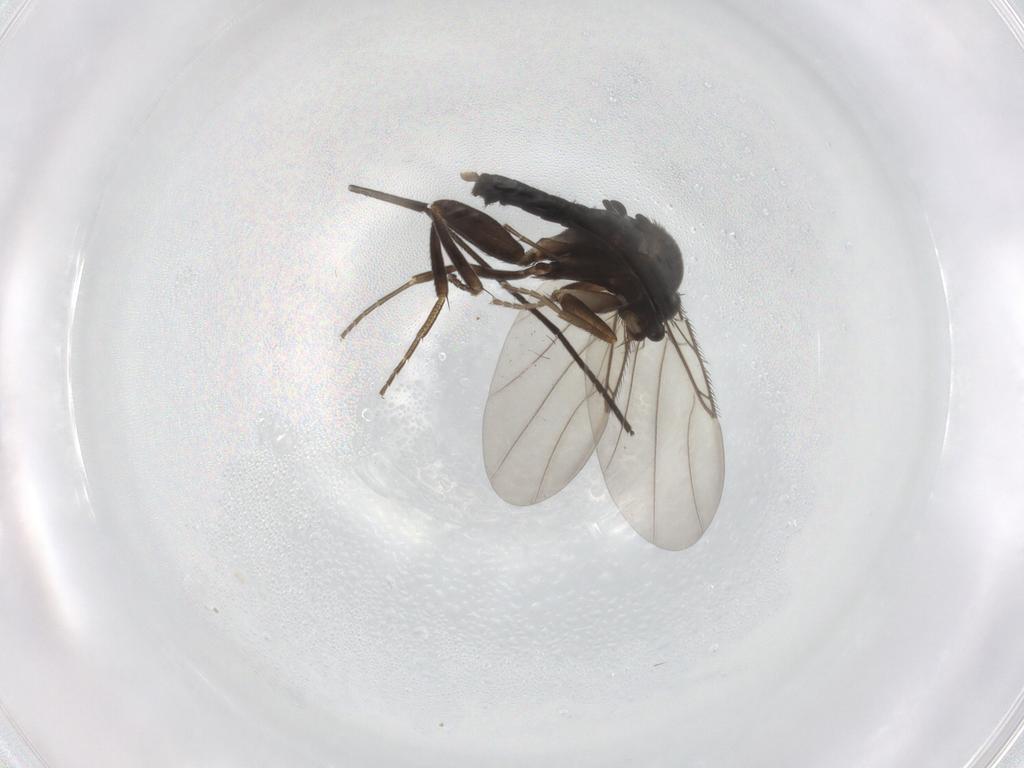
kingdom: Animalia
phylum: Arthropoda
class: Insecta
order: Diptera
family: Phoridae
